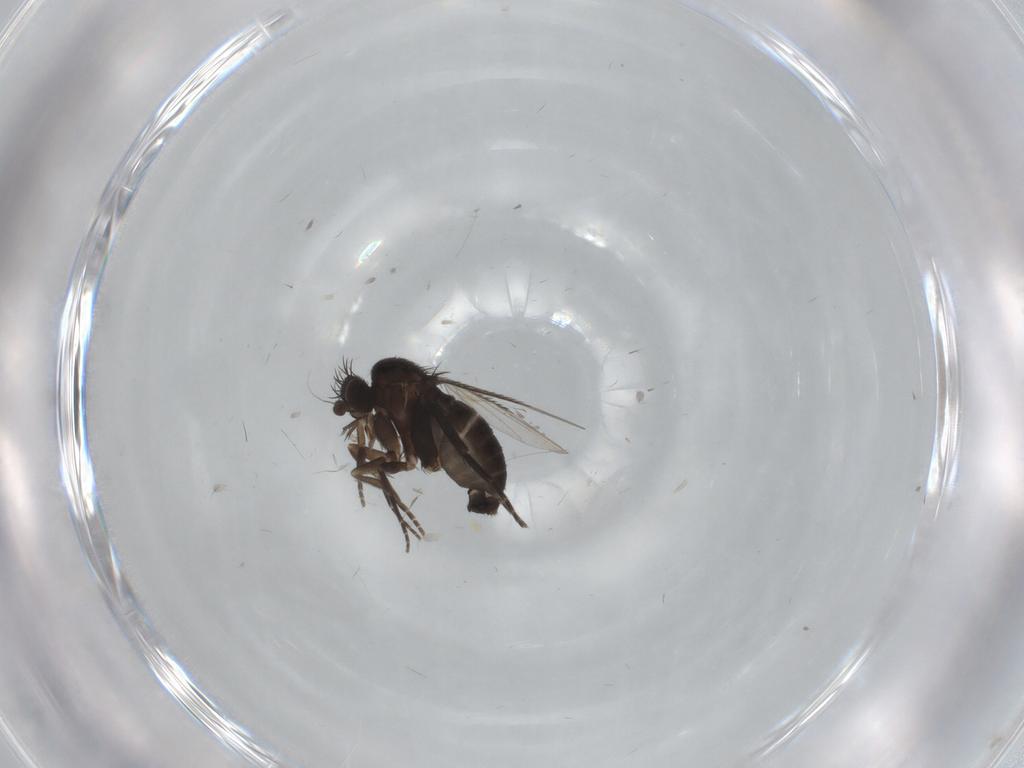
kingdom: Animalia
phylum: Arthropoda
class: Insecta
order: Diptera
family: Phoridae
